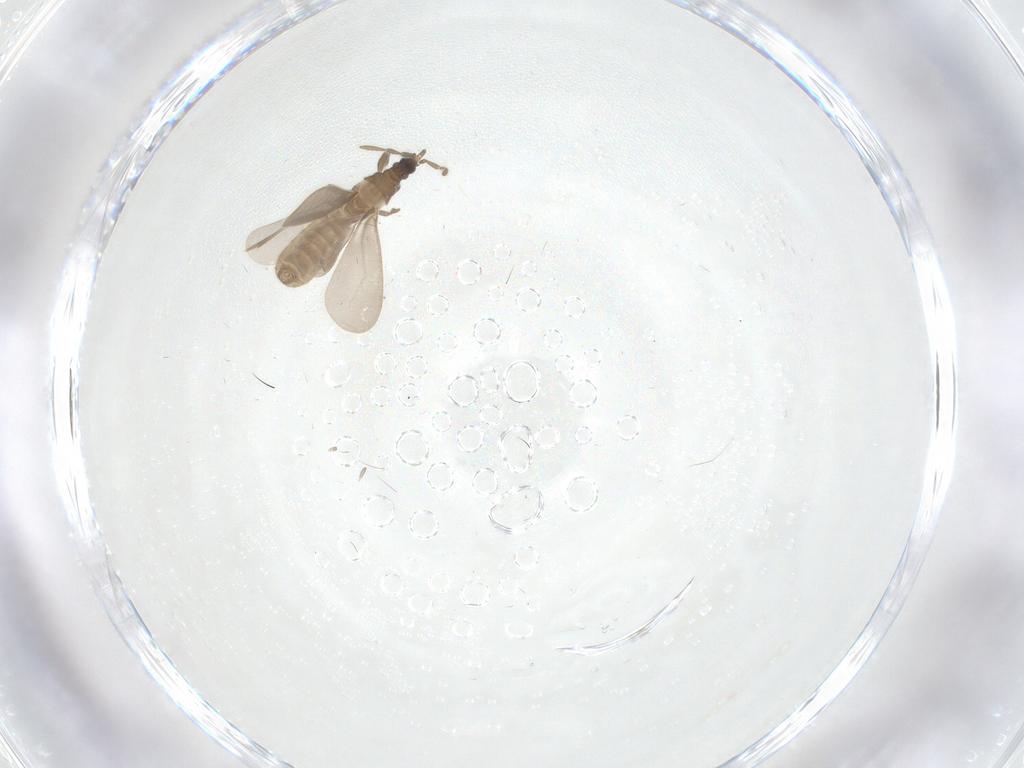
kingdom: Animalia
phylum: Arthropoda
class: Insecta
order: Hemiptera
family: Enicocephalidae
